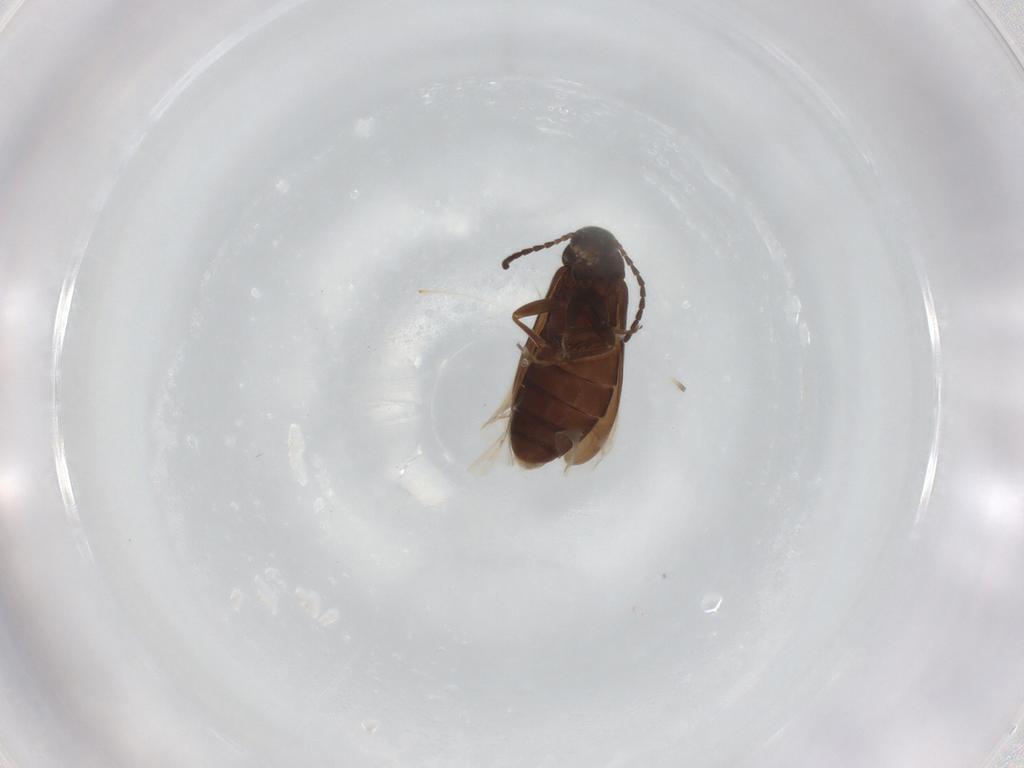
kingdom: Animalia
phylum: Arthropoda
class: Insecta
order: Coleoptera
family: Scraptiidae
